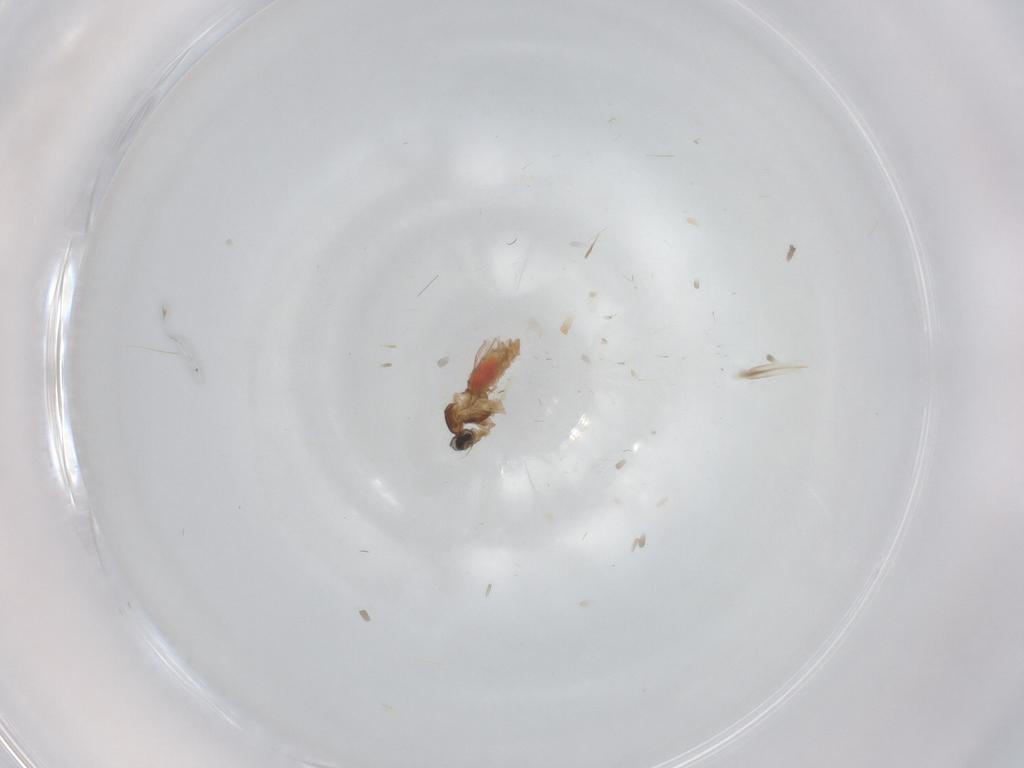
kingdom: Animalia
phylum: Arthropoda
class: Insecta
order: Diptera
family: Cecidomyiidae
